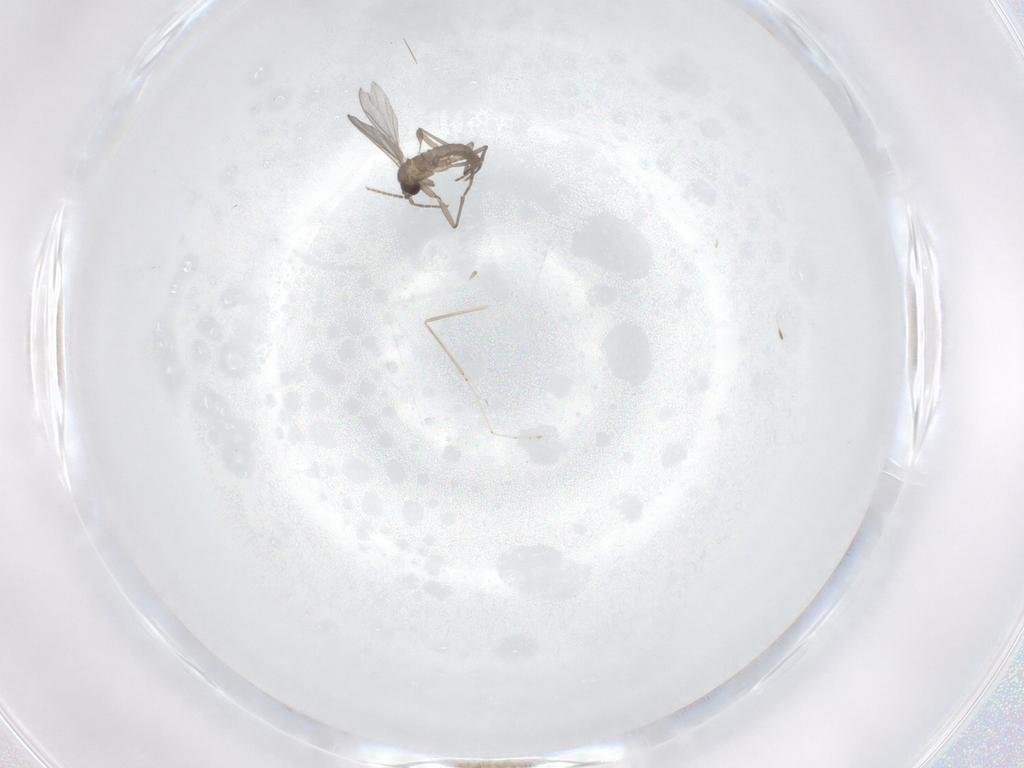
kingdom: Animalia
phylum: Arthropoda
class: Insecta
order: Diptera
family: Sciaridae
